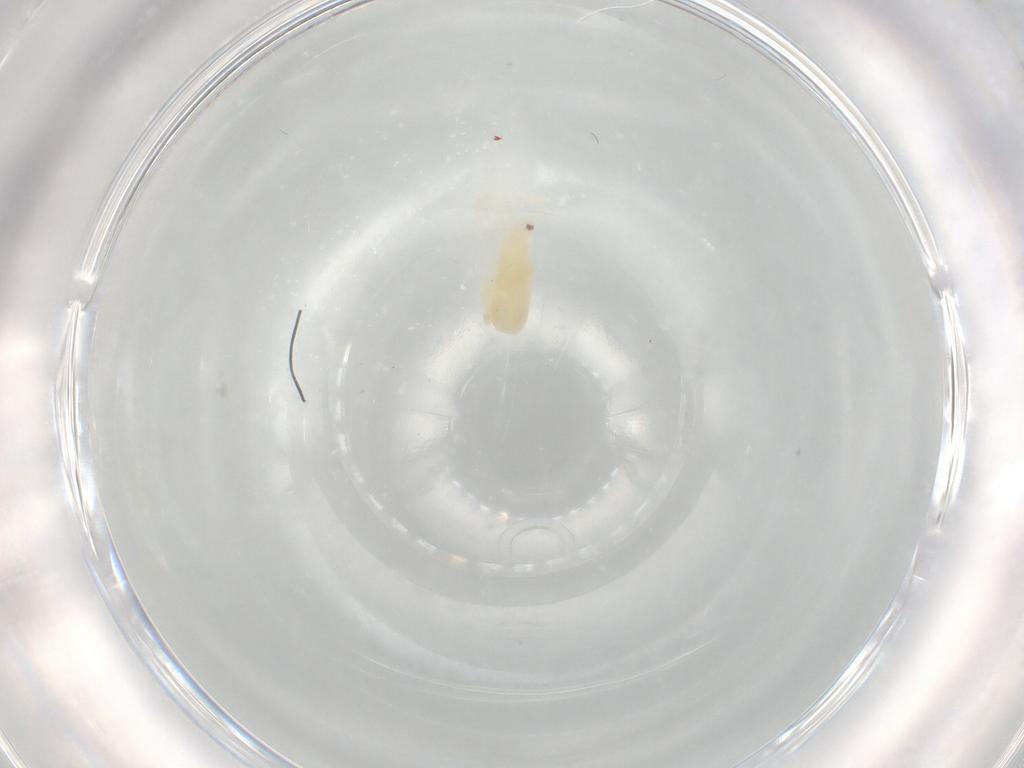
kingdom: Animalia
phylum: Arthropoda
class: Arachnida
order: Trombidiformes
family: Rhagidiidae
